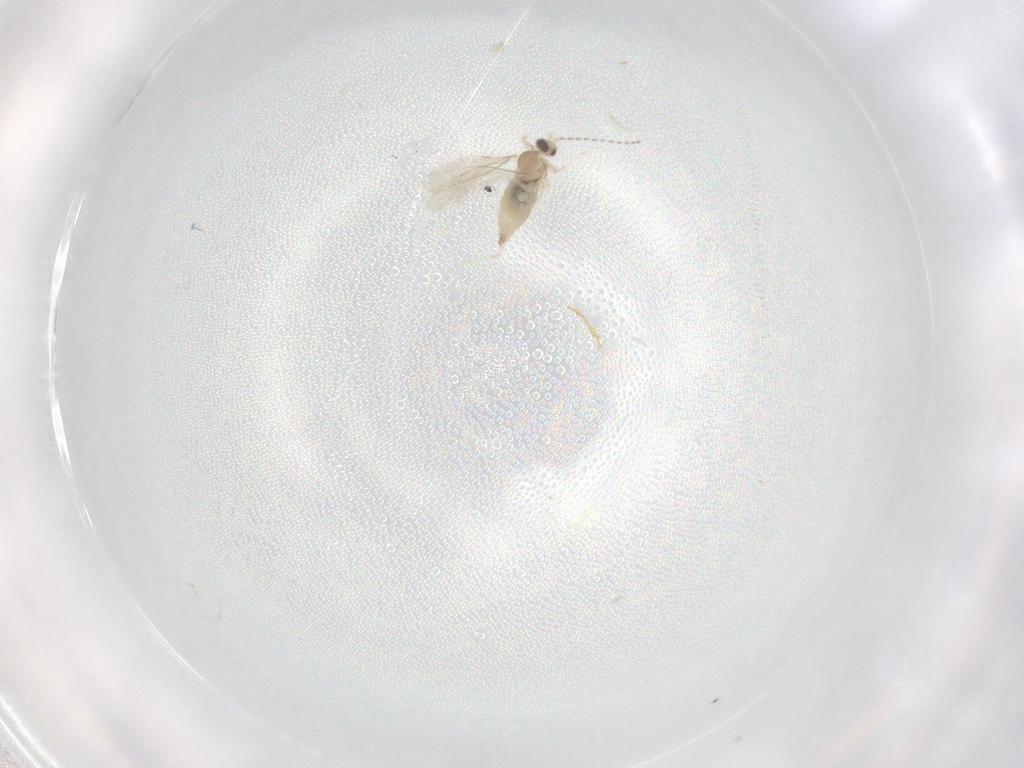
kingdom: Animalia
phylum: Arthropoda
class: Insecta
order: Diptera
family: Cecidomyiidae
